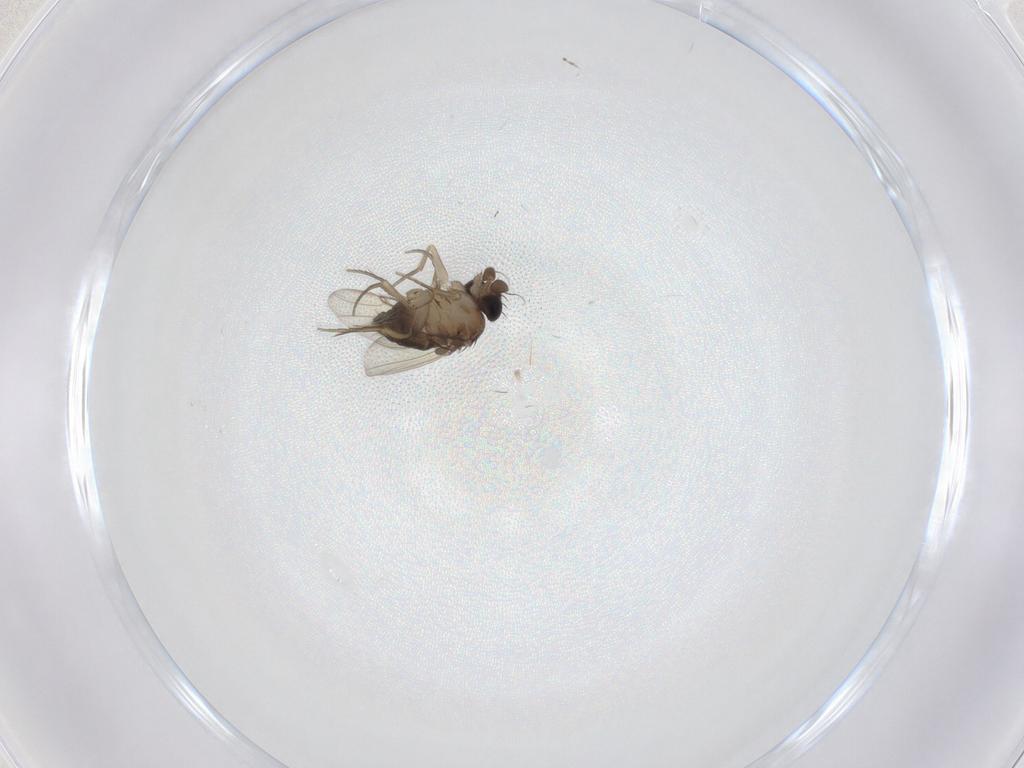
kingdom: Animalia
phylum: Arthropoda
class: Insecta
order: Diptera
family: Phoridae
